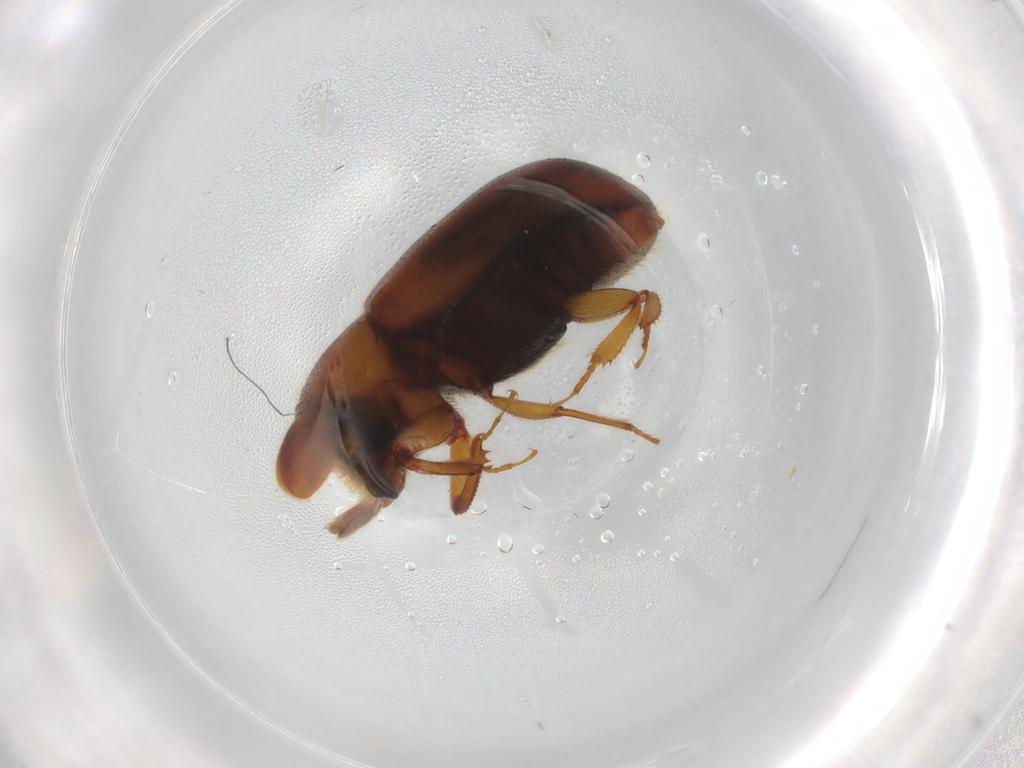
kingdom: Animalia
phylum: Arthropoda
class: Insecta
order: Coleoptera
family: Curculionidae
